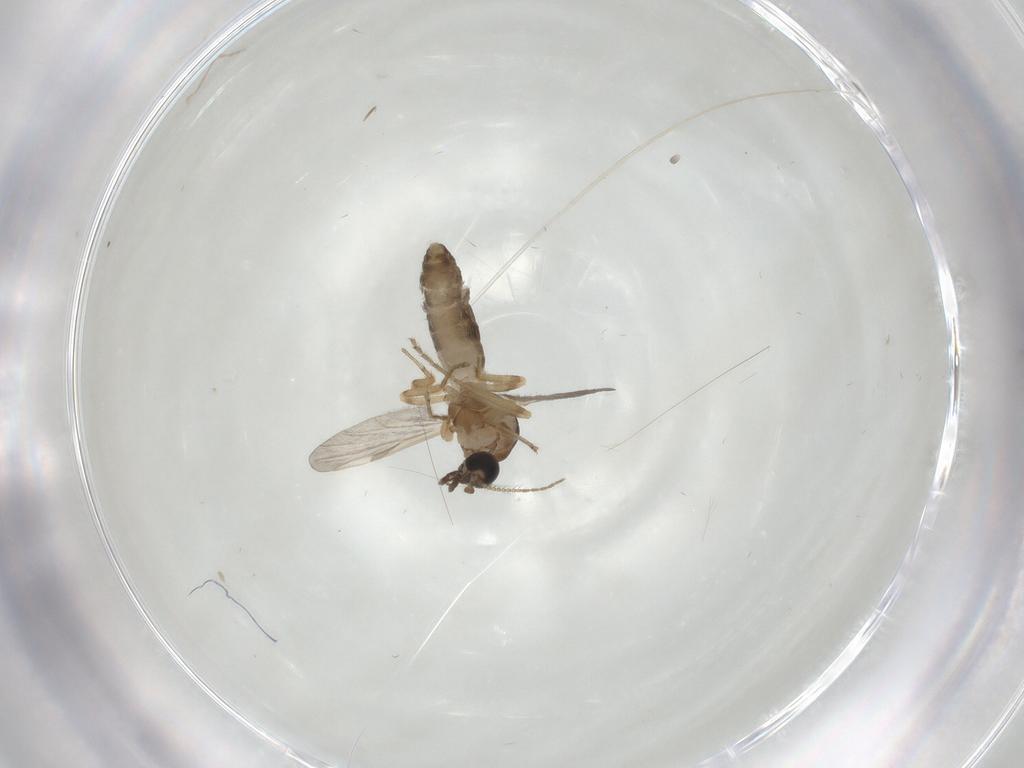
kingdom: Animalia
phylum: Arthropoda
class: Insecta
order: Diptera
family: Ceratopogonidae
